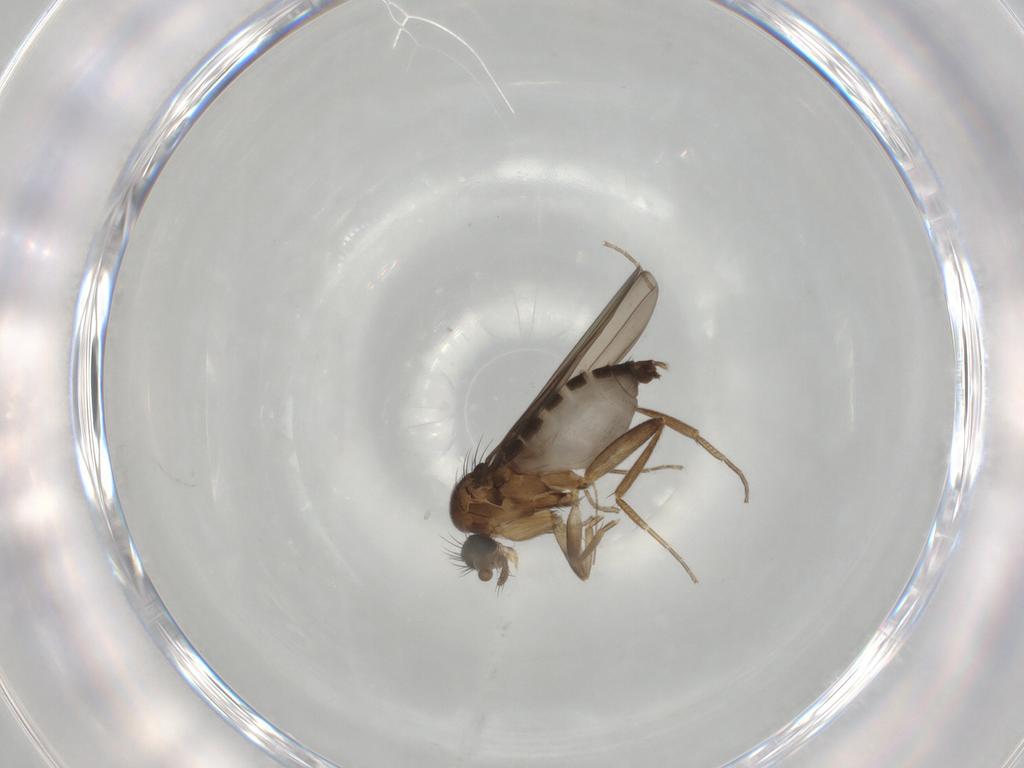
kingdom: Animalia
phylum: Arthropoda
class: Insecta
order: Diptera
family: Phoridae
